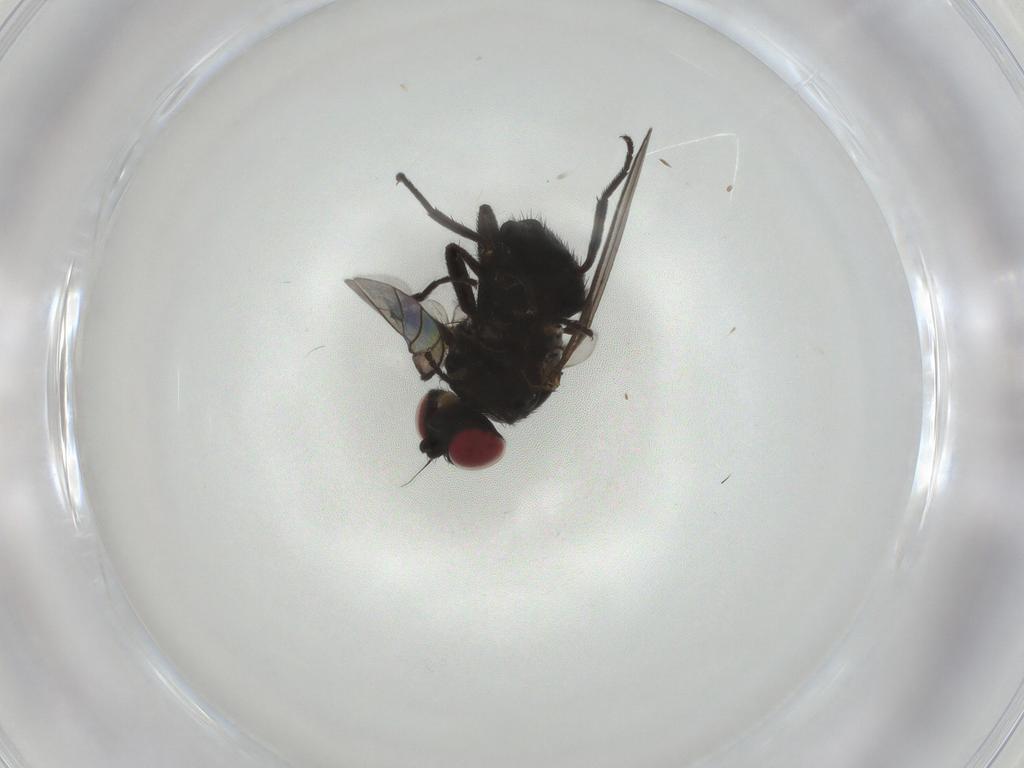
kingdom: Animalia
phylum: Arthropoda
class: Insecta
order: Diptera
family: Agromyzidae
